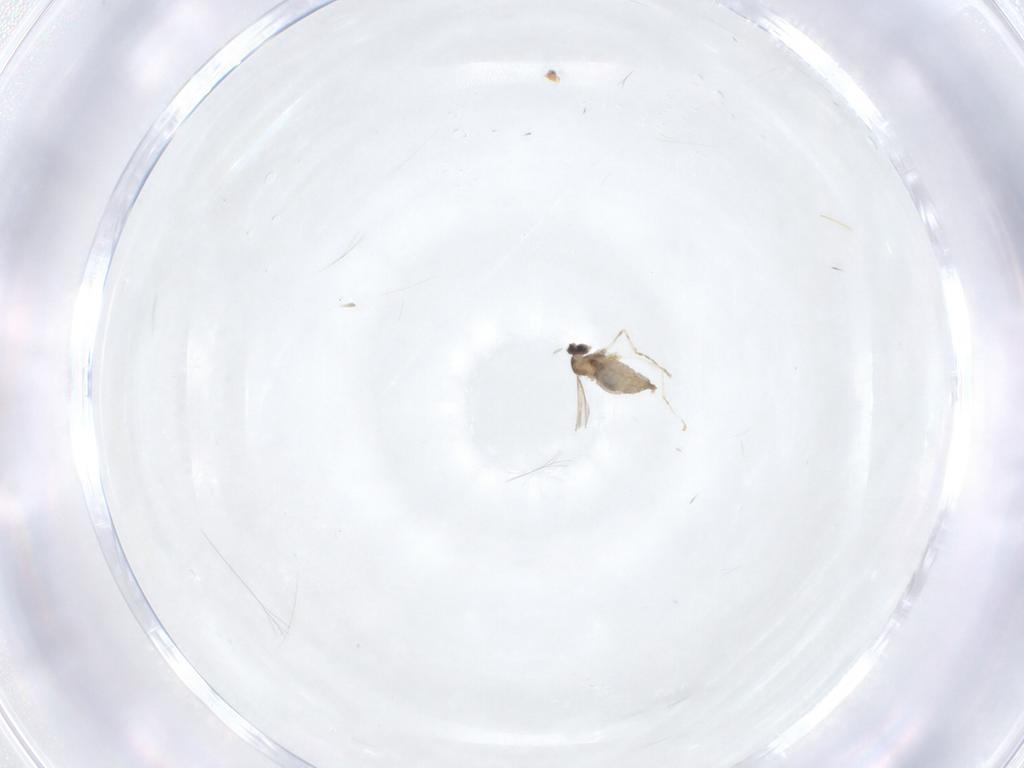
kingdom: Animalia
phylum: Arthropoda
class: Insecta
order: Diptera
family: Cecidomyiidae
